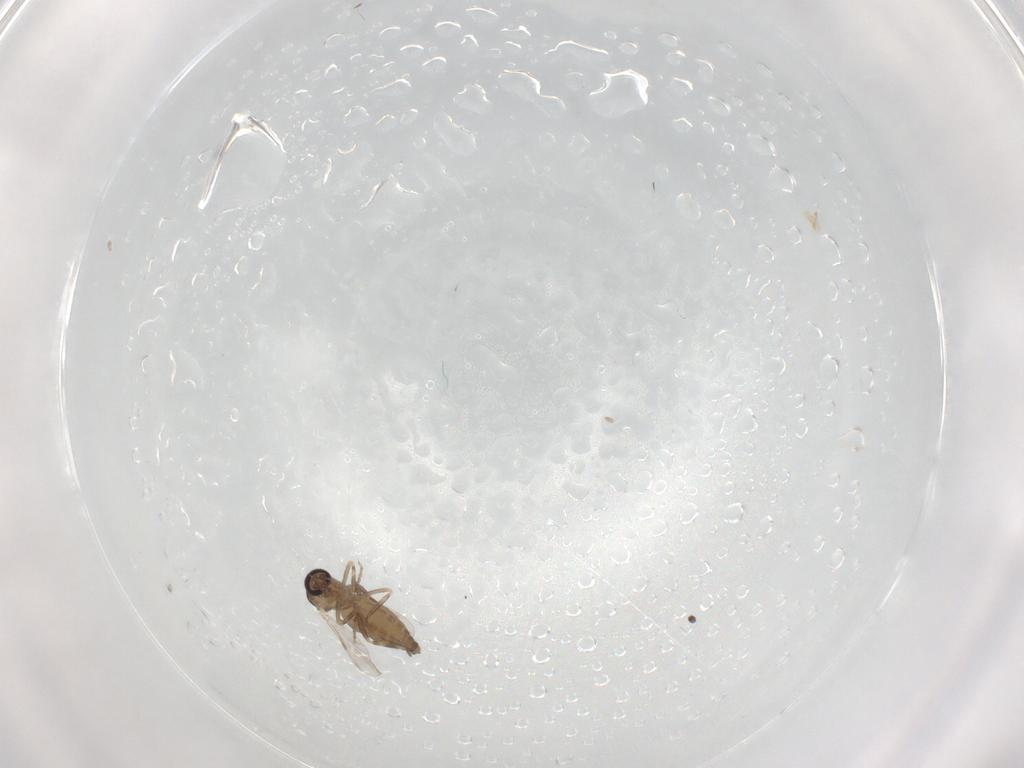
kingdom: Animalia
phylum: Arthropoda
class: Insecta
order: Diptera
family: Ceratopogonidae
